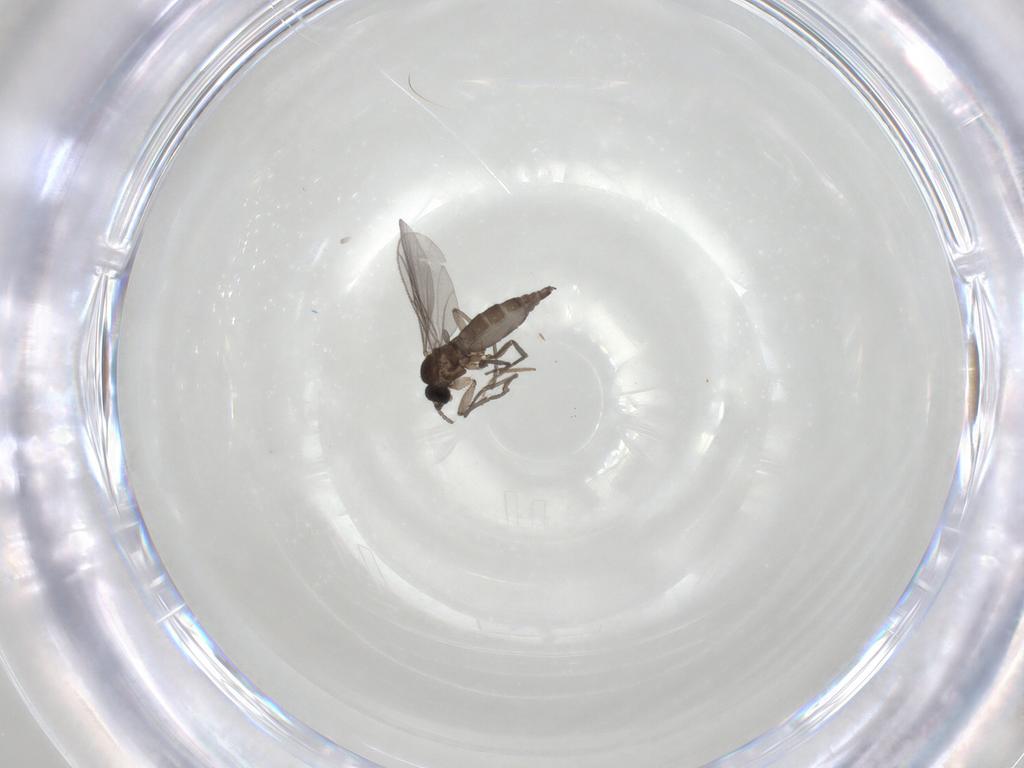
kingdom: Animalia
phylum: Arthropoda
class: Insecta
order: Diptera
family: Chironomidae
